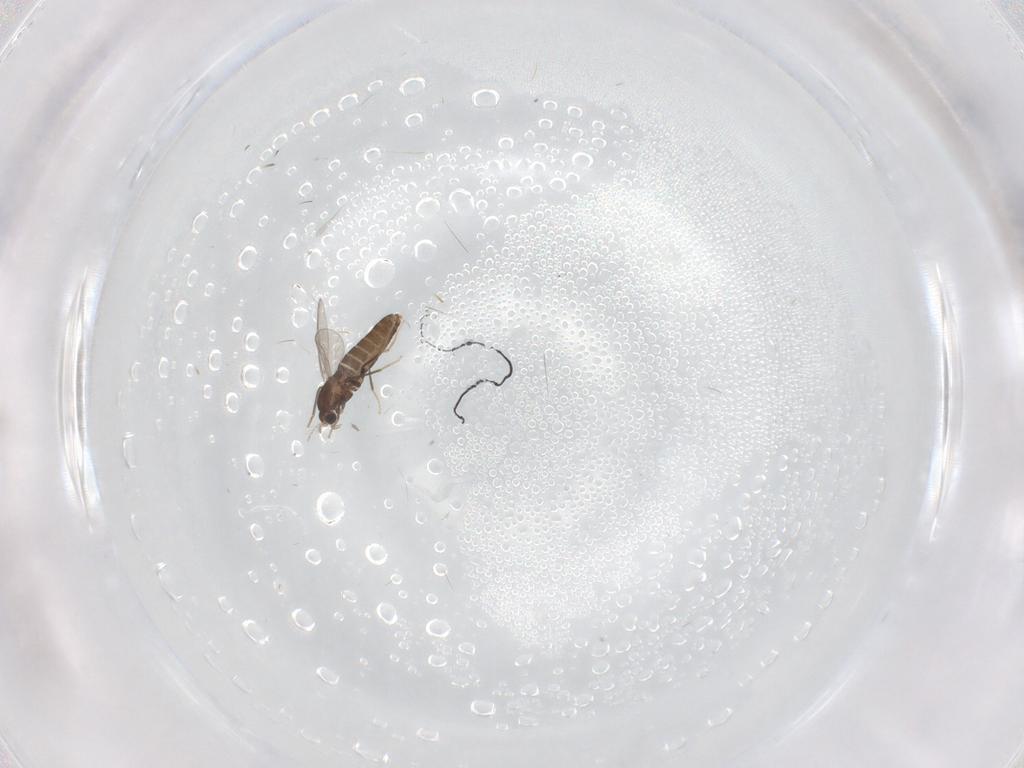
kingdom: Animalia
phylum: Arthropoda
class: Insecta
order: Diptera
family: Chironomidae
